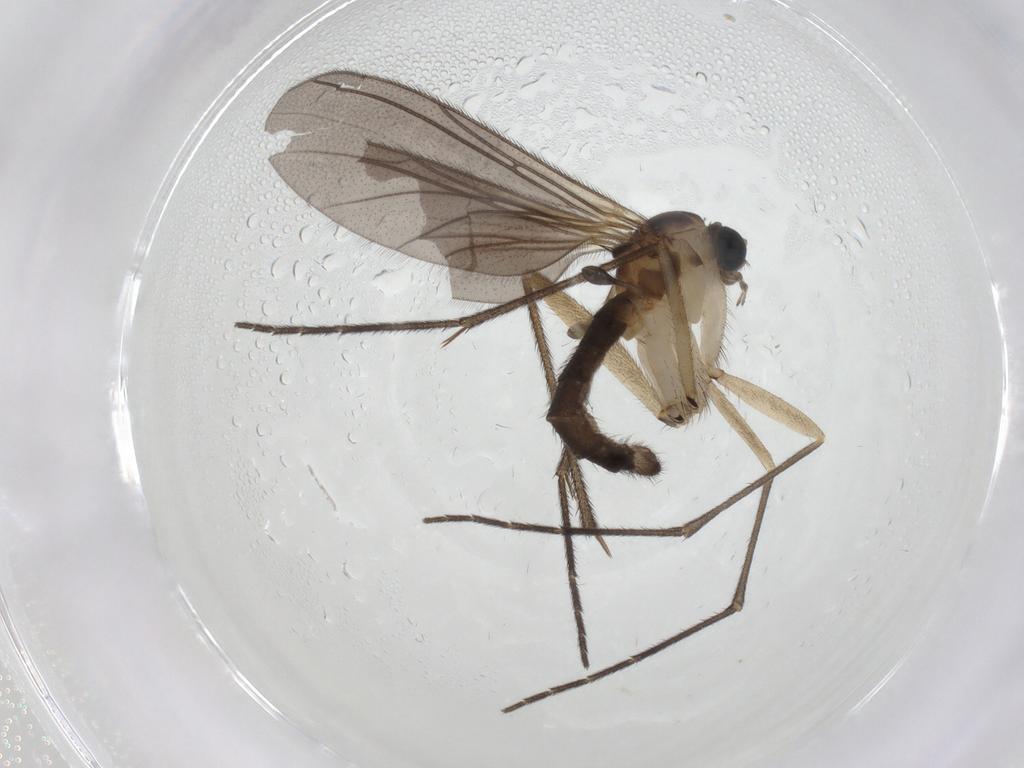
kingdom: Animalia
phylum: Arthropoda
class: Insecta
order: Diptera
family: Sciaridae
